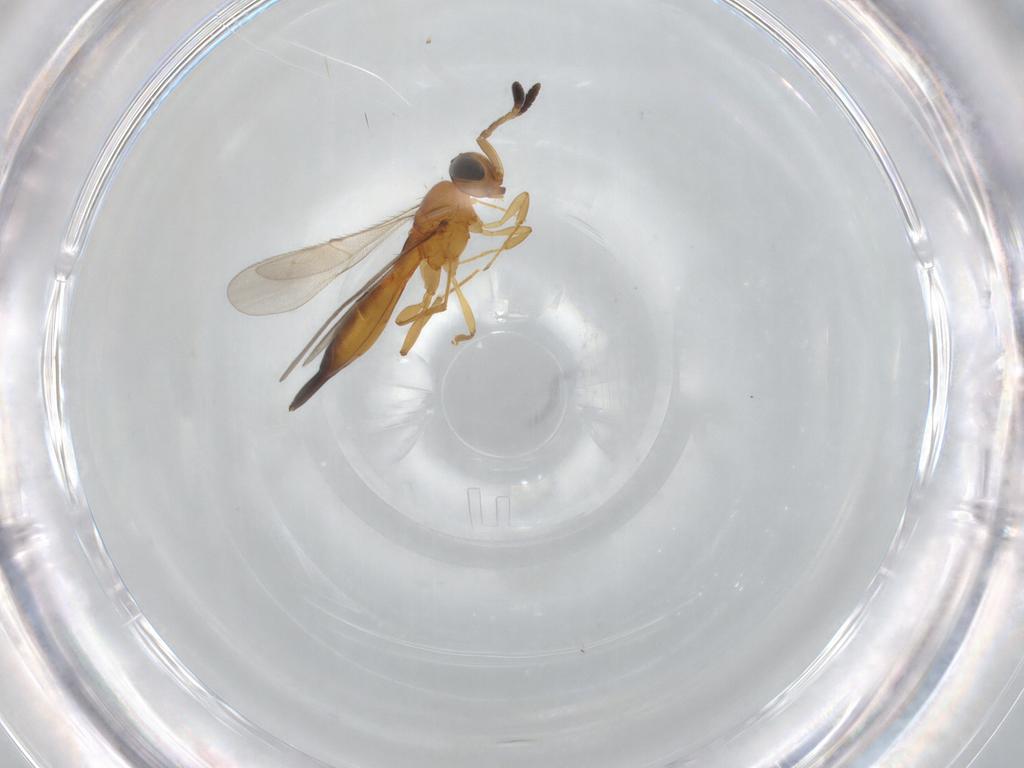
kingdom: Animalia
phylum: Arthropoda
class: Insecta
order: Hymenoptera
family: Scelionidae
